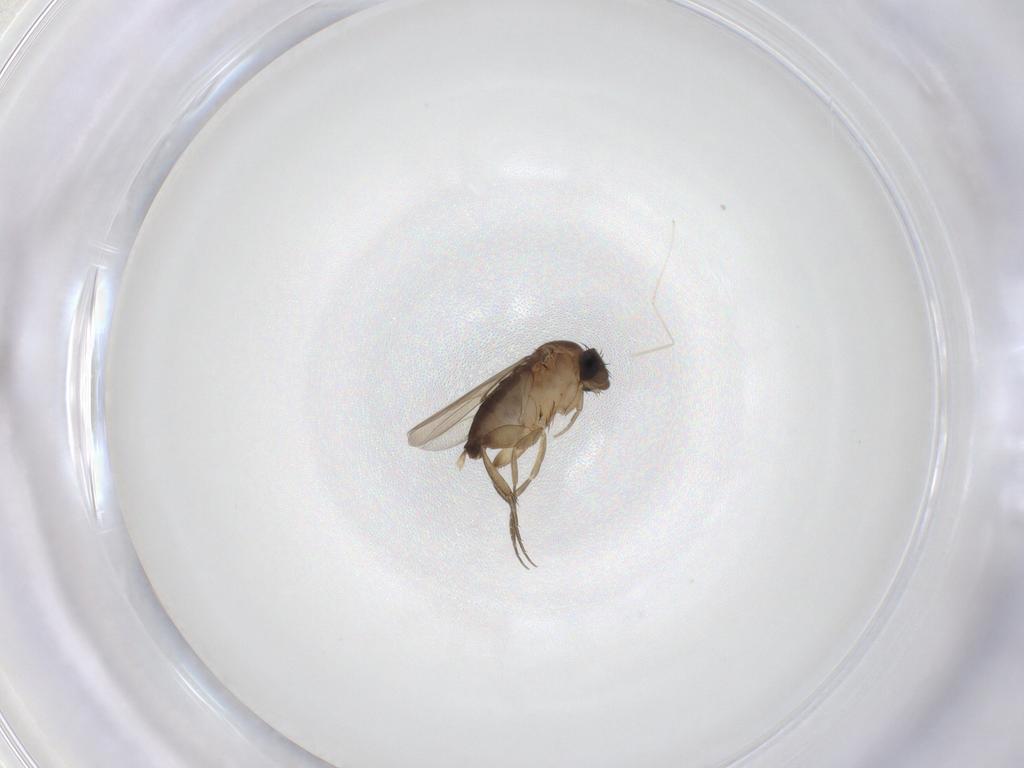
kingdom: Animalia
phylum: Arthropoda
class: Insecta
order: Diptera
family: Phoridae
